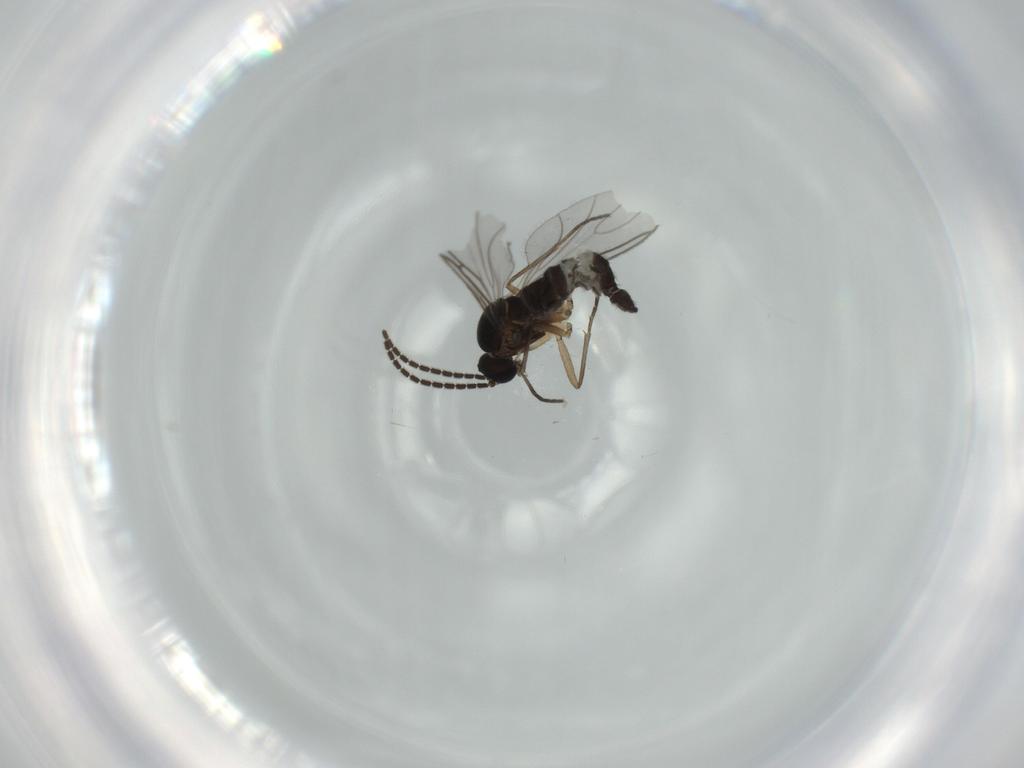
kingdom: Animalia
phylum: Arthropoda
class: Insecta
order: Diptera
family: Sciaridae
